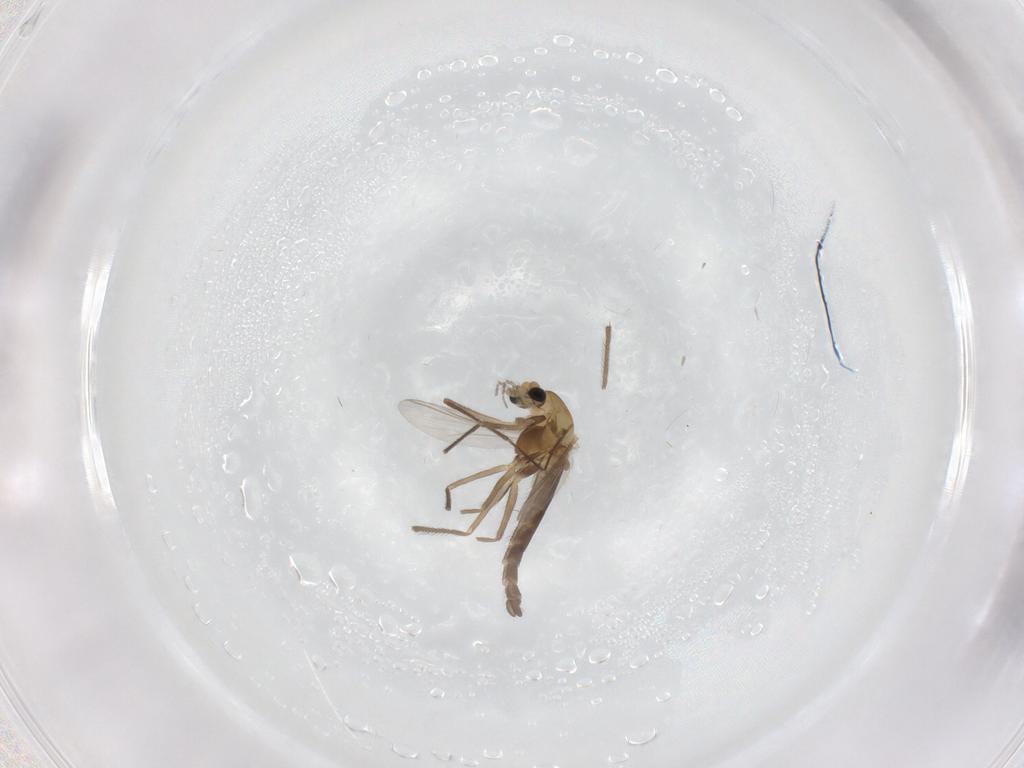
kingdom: Animalia
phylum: Arthropoda
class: Insecta
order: Diptera
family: Chironomidae
